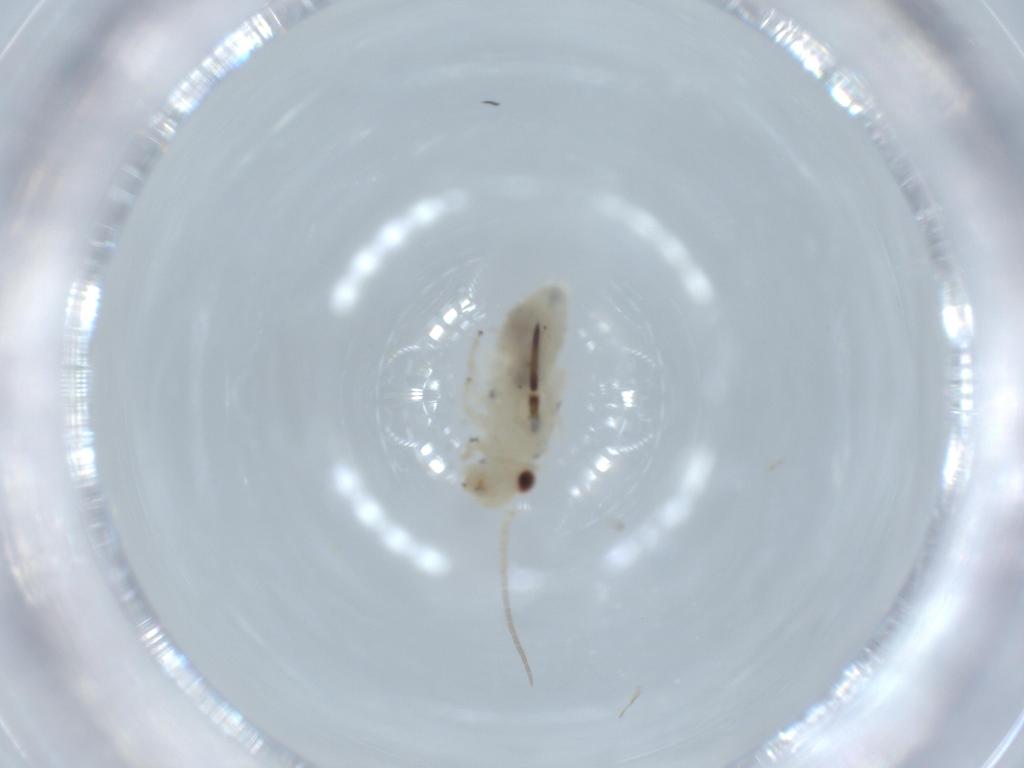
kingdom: Animalia
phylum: Arthropoda
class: Insecta
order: Psocodea
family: Caeciliusidae
